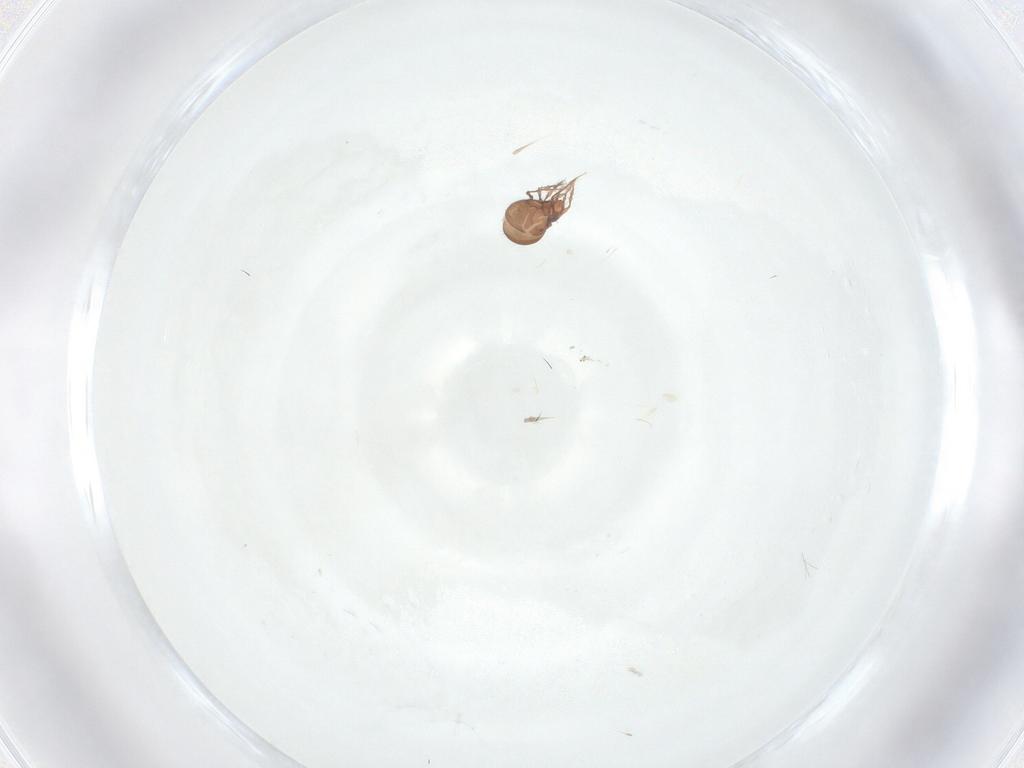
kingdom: Animalia
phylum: Arthropoda
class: Arachnida
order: Sarcoptiformes
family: Oppiidae
